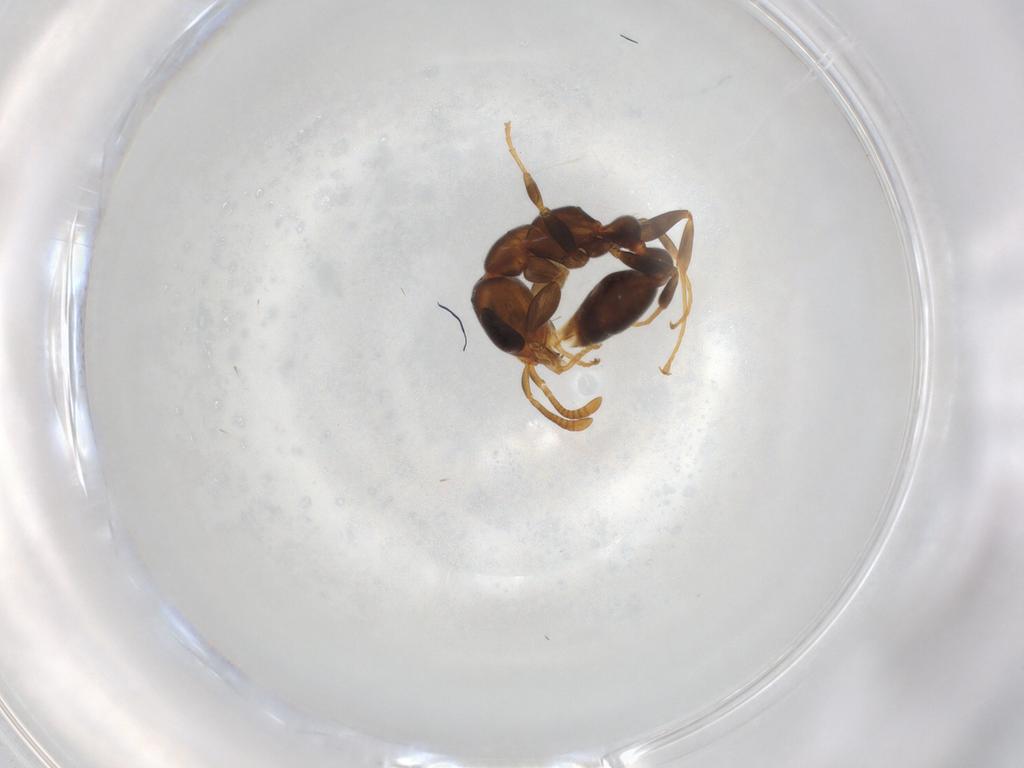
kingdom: Animalia
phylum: Arthropoda
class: Insecta
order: Hymenoptera
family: Formicidae
